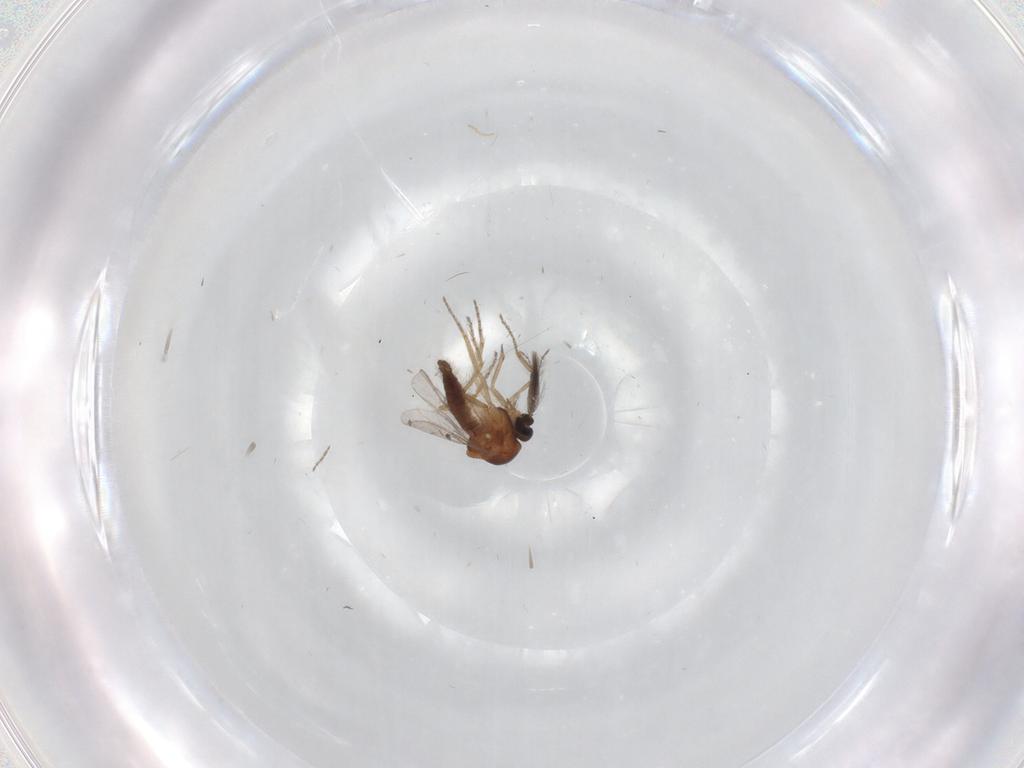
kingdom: Animalia
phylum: Arthropoda
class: Insecta
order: Diptera
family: Ceratopogonidae
